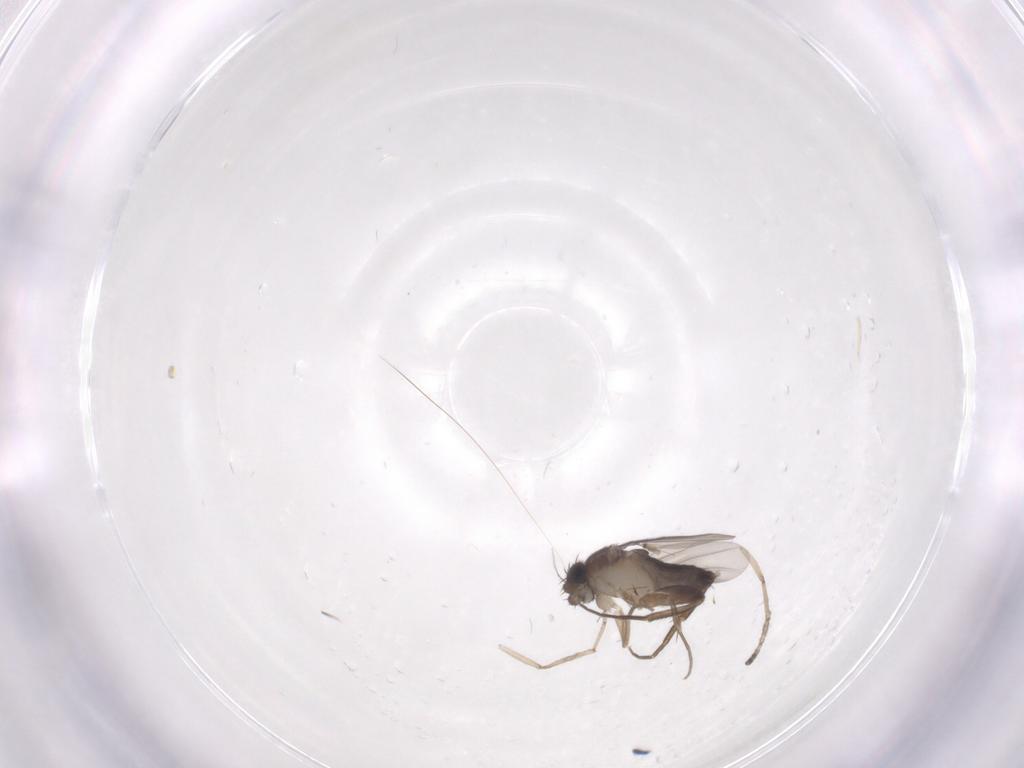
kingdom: Animalia
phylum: Arthropoda
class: Insecta
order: Diptera
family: Phoridae
